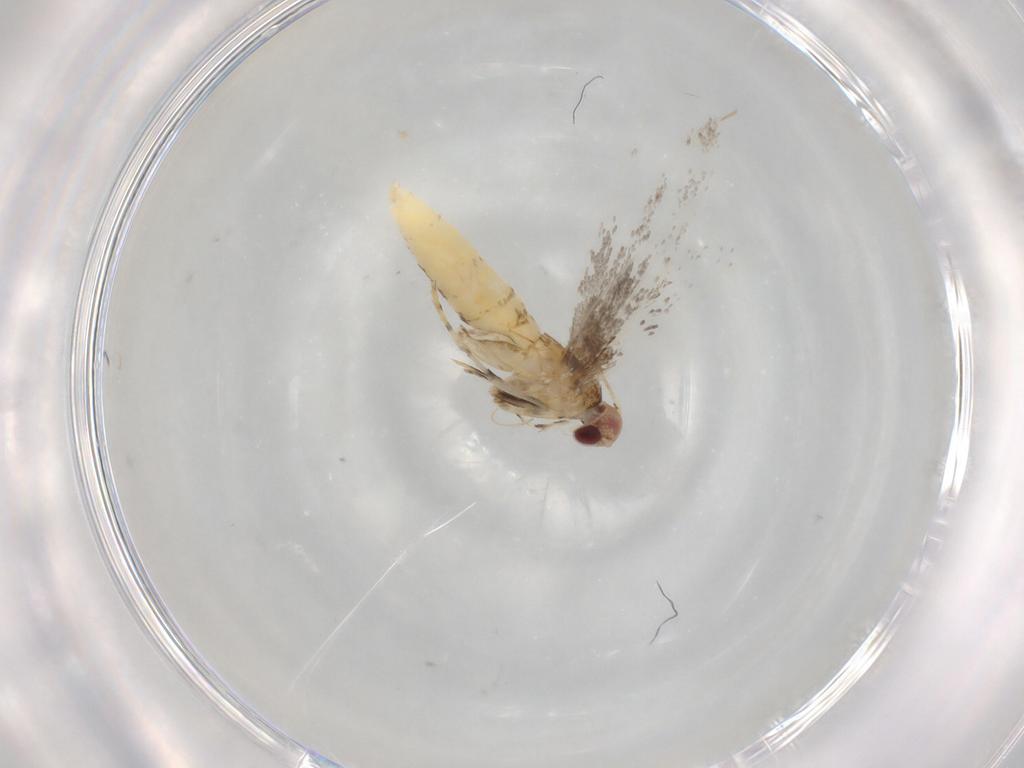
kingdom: Animalia
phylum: Arthropoda
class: Insecta
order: Lepidoptera
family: Gracillariidae
